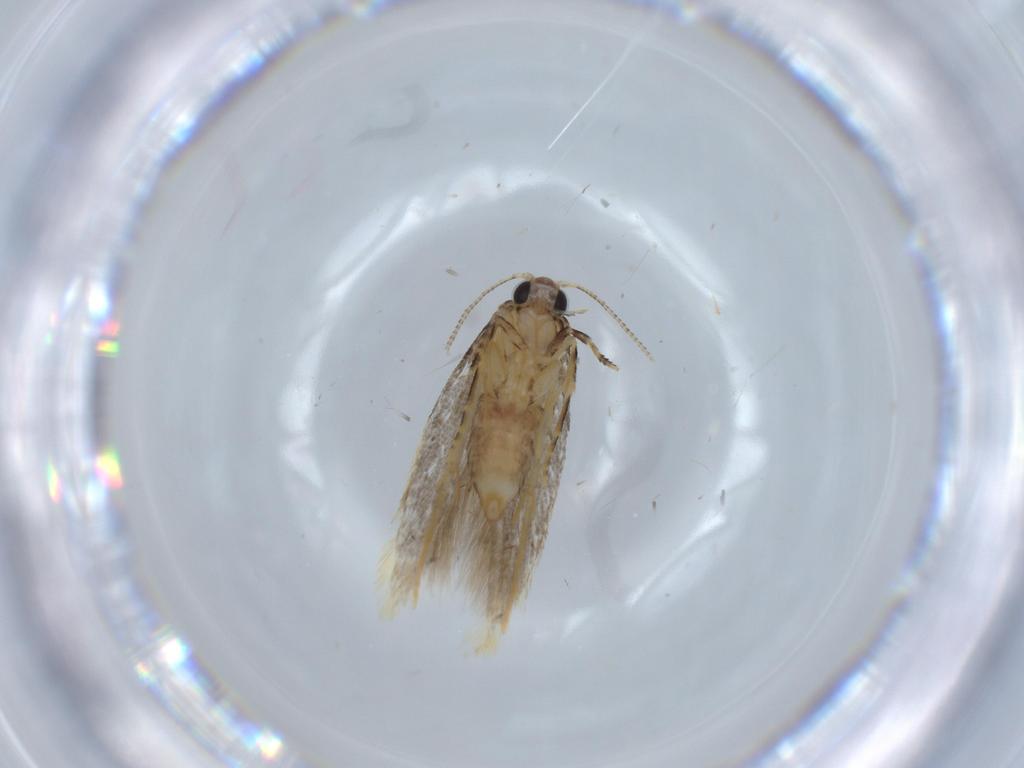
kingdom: Animalia
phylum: Arthropoda
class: Insecta
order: Lepidoptera
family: Tineidae
